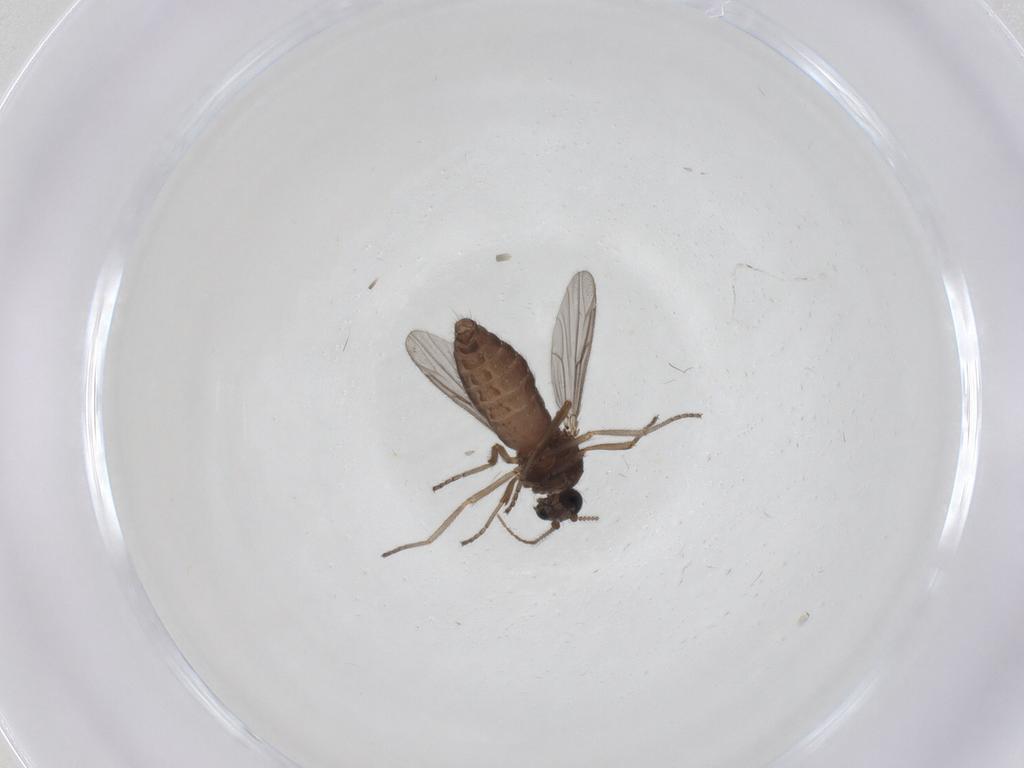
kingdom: Animalia
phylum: Arthropoda
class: Insecta
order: Diptera
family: Ceratopogonidae
